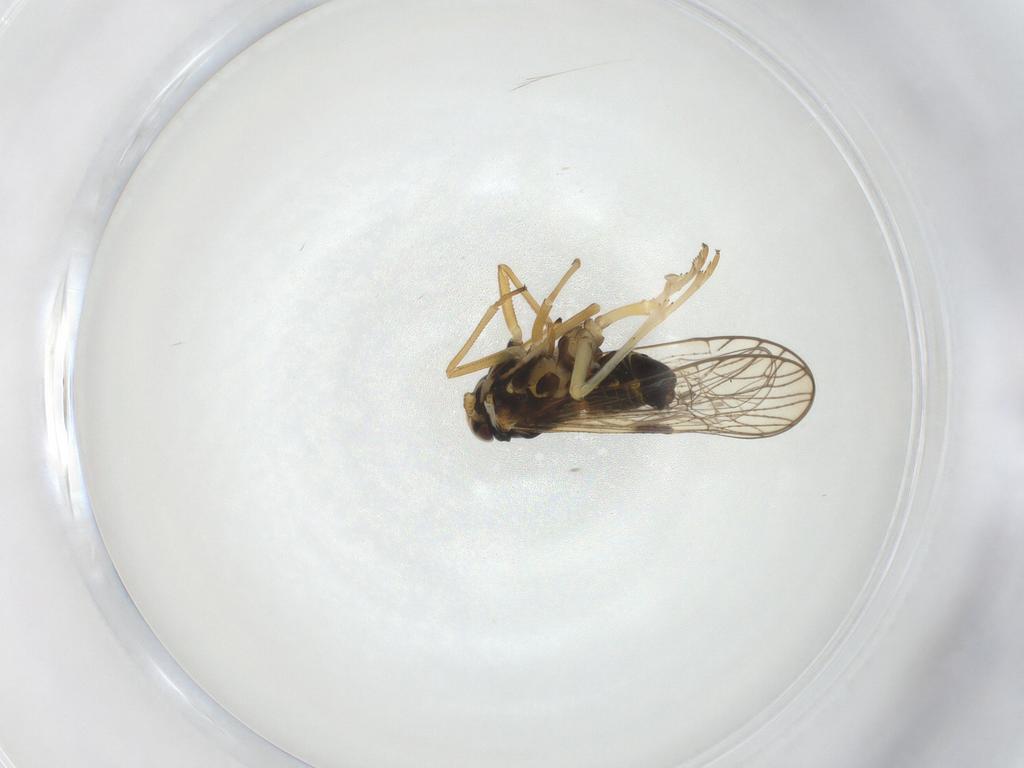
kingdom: Animalia
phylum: Arthropoda
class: Insecta
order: Hemiptera
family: Cicadellidae
